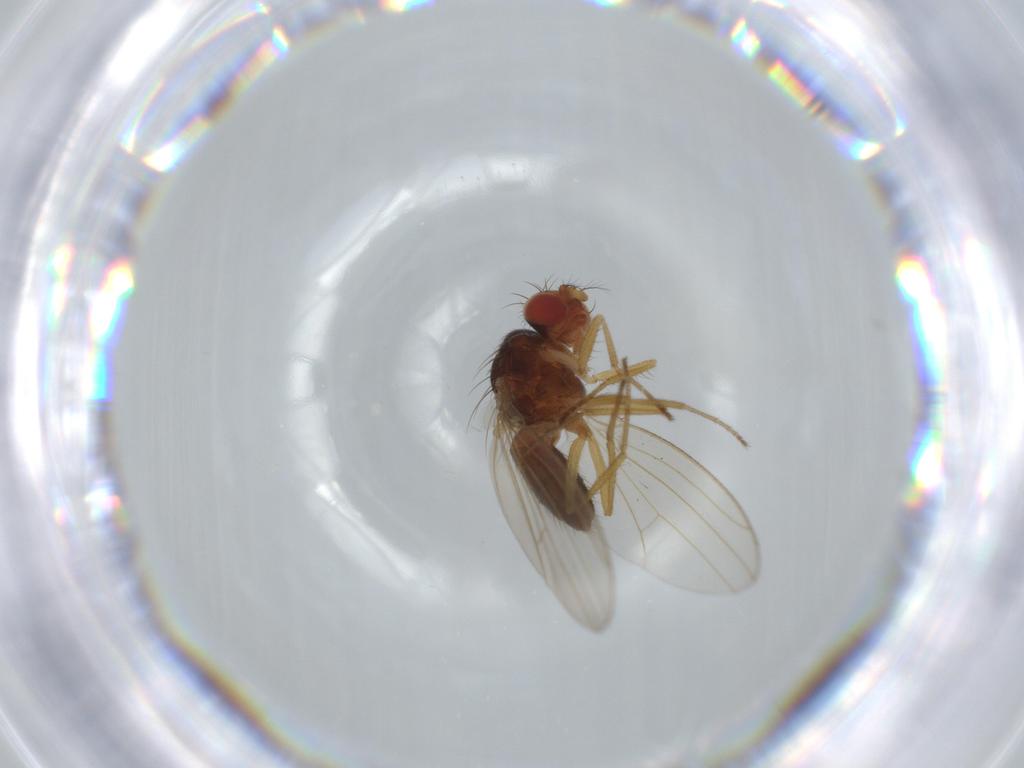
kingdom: Animalia
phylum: Arthropoda
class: Insecta
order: Diptera
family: Drosophilidae
